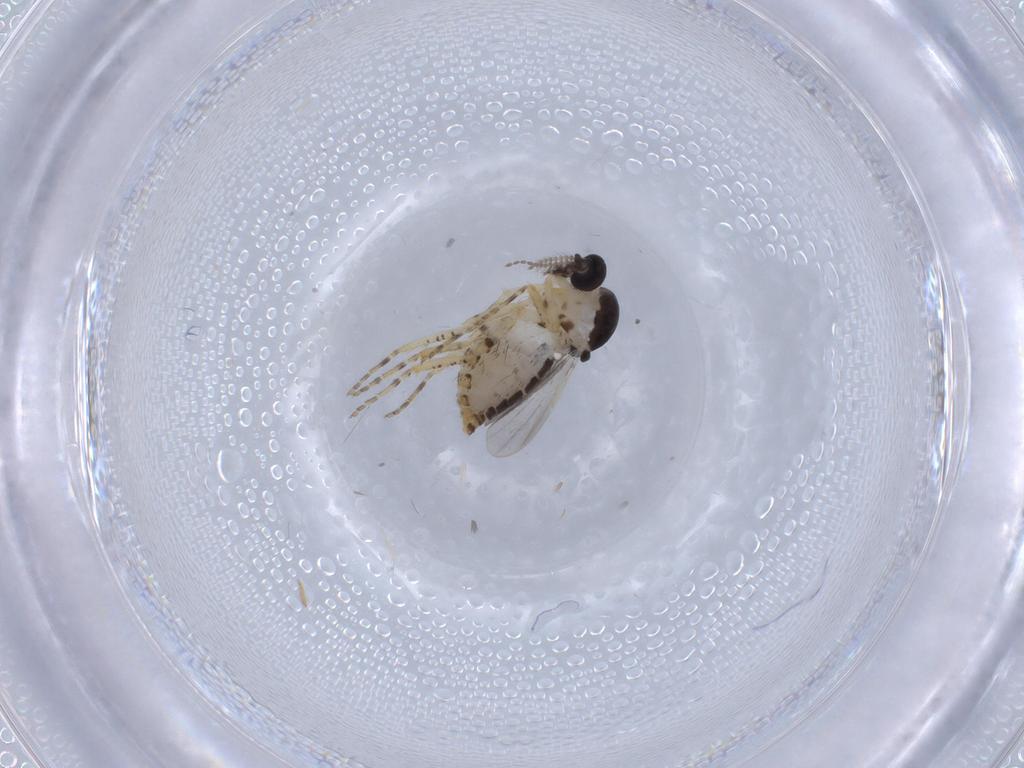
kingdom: Animalia
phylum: Arthropoda
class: Insecta
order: Diptera
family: Ceratopogonidae
